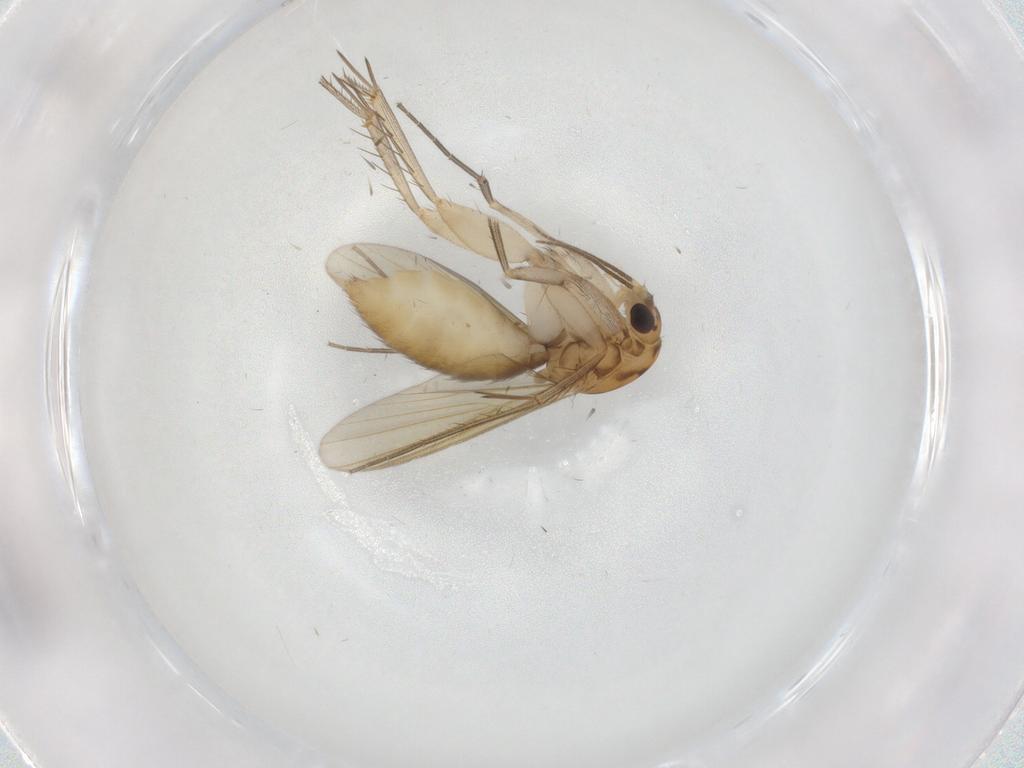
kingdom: Animalia
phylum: Arthropoda
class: Insecta
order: Diptera
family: Mycetophilidae
